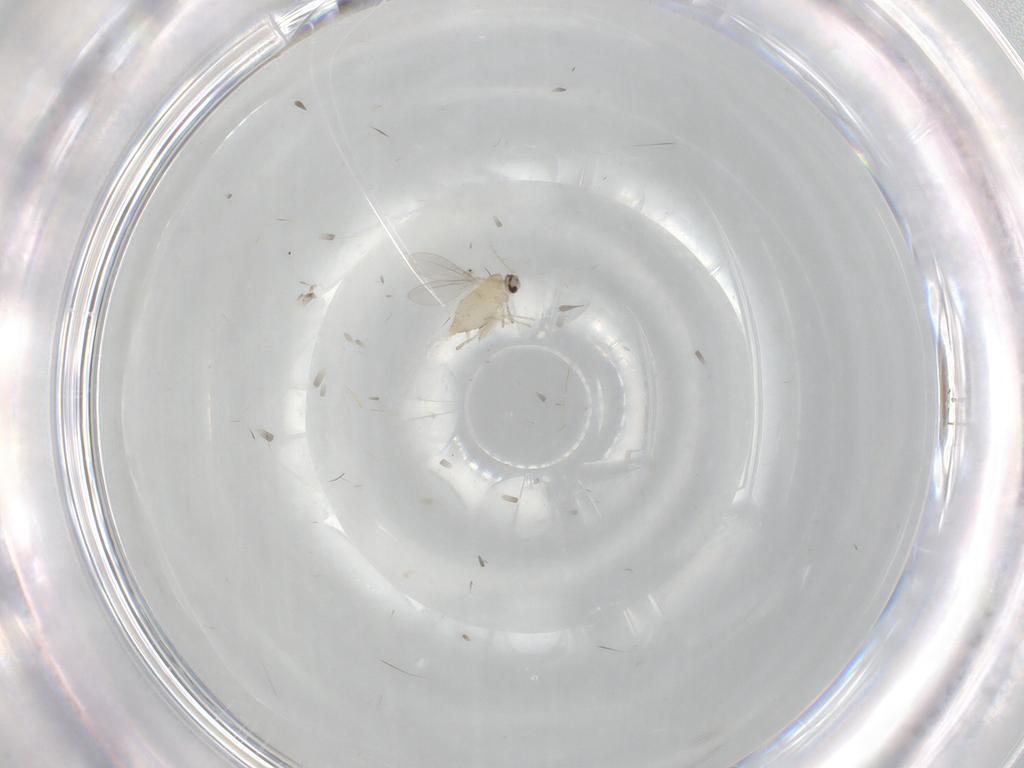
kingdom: Animalia
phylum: Arthropoda
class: Insecta
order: Diptera
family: Cecidomyiidae
